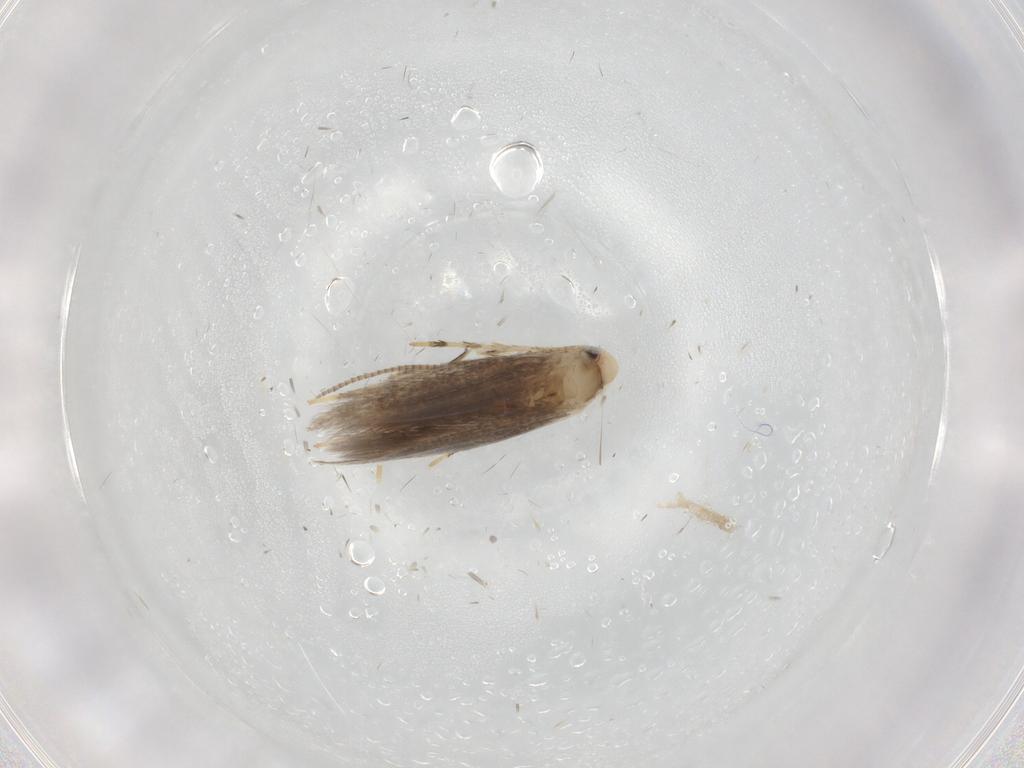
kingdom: Animalia
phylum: Arthropoda
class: Insecta
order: Lepidoptera
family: Gracillariidae
